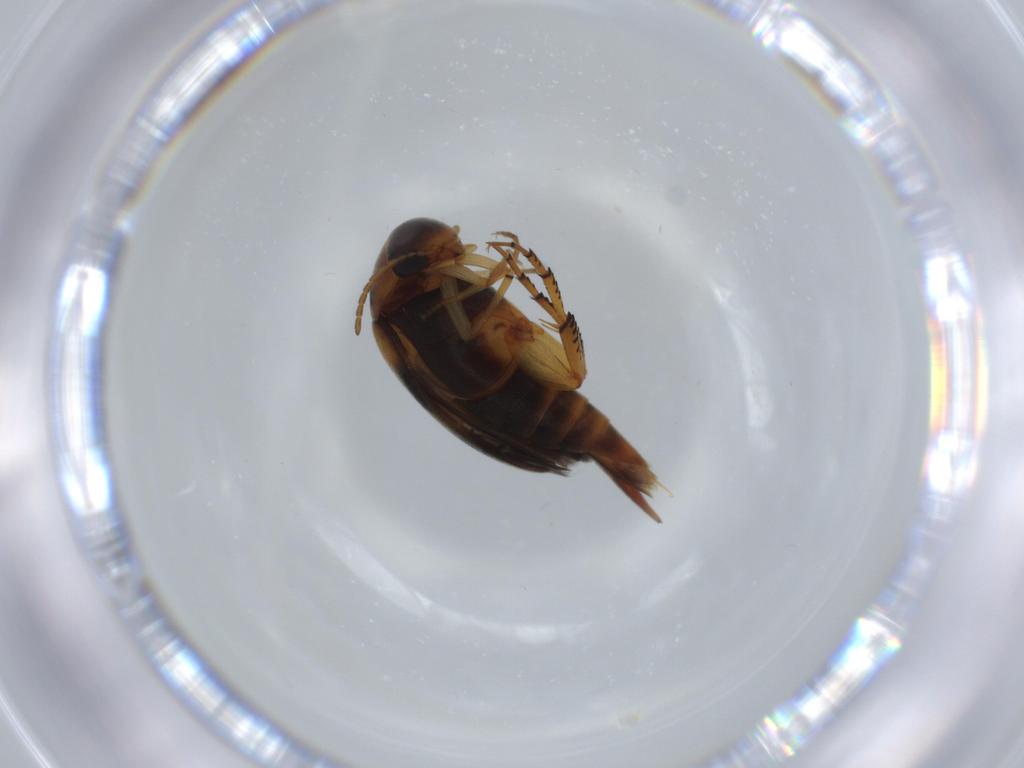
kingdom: Animalia
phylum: Arthropoda
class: Insecta
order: Coleoptera
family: Mordellidae
